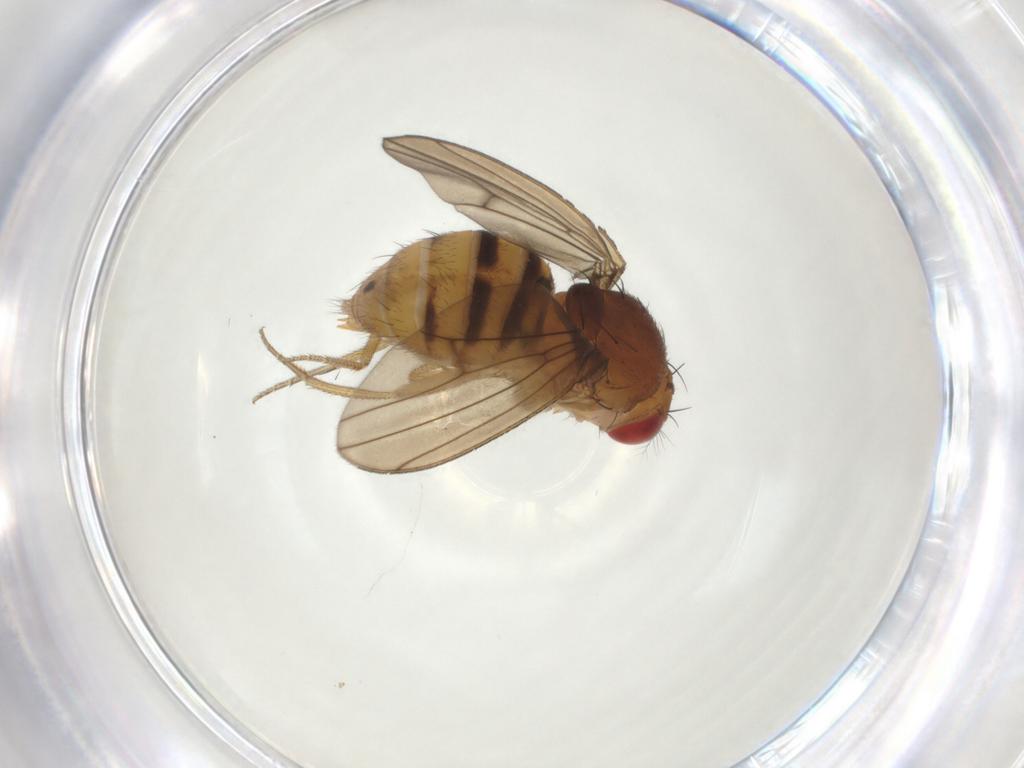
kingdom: Animalia
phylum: Arthropoda
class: Insecta
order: Diptera
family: Drosophilidae
